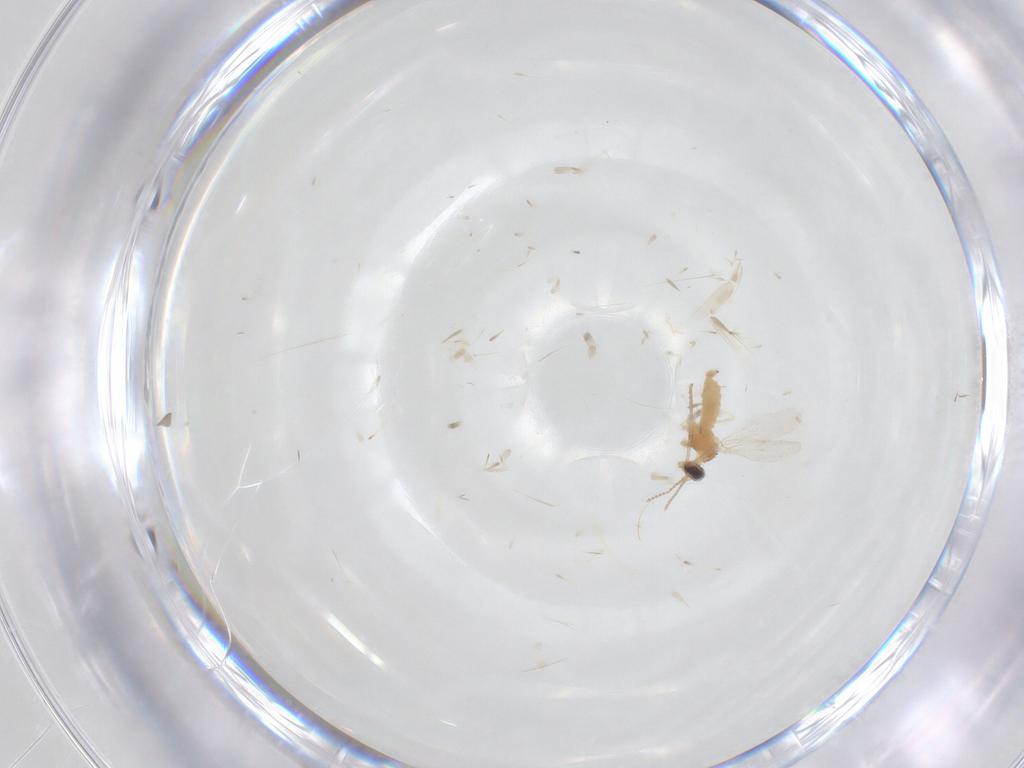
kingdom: Animalia
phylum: Arthropoda
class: Insecta
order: Diptera
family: Cecidomyiidae
